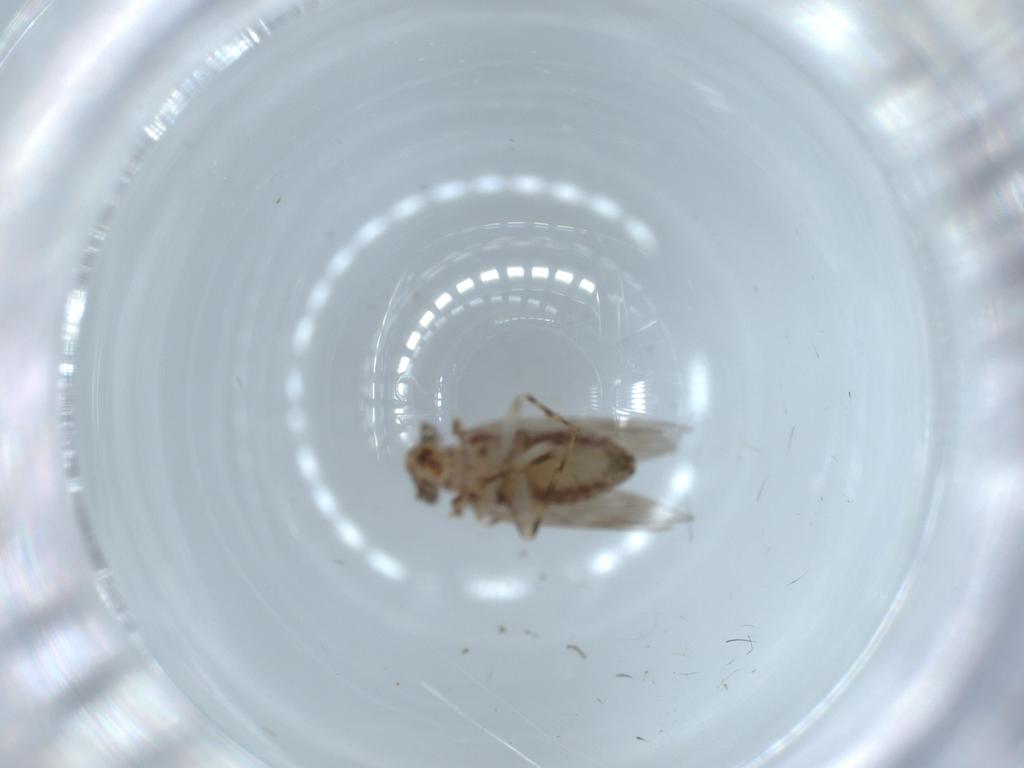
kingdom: Animalia
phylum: Arthropoda
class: Insecta
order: Psocodea
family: Lepidopsocidae
